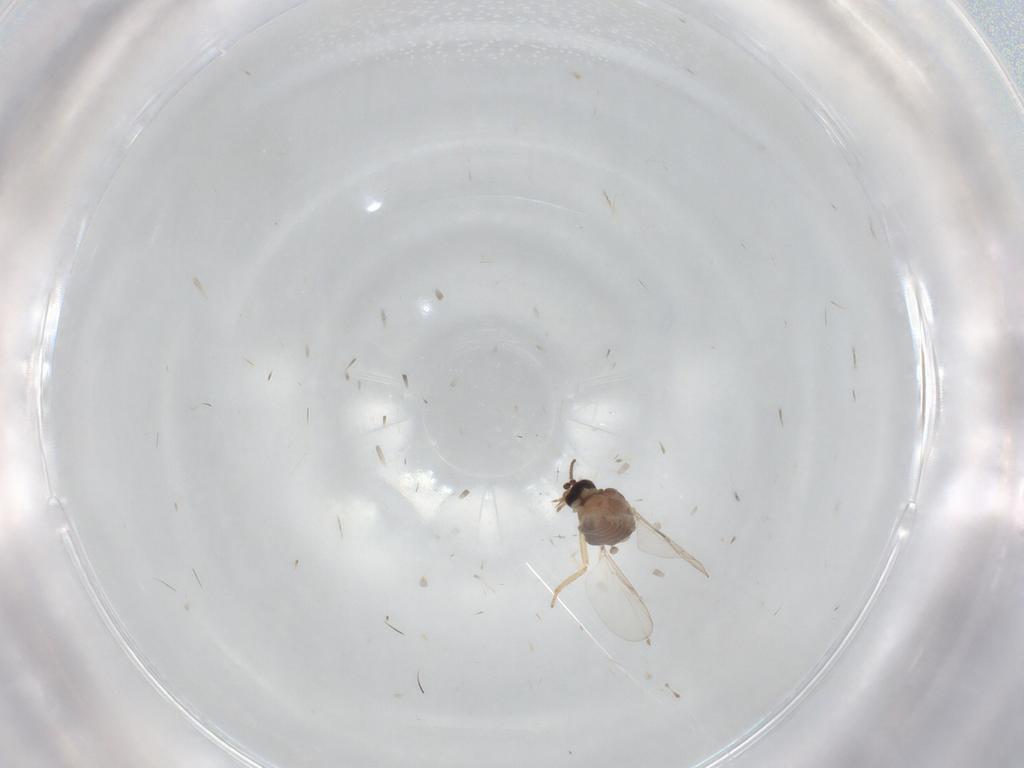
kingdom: Animalia
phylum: Arthropoda
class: Insecta
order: Diptera
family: Ceratopogonidae
